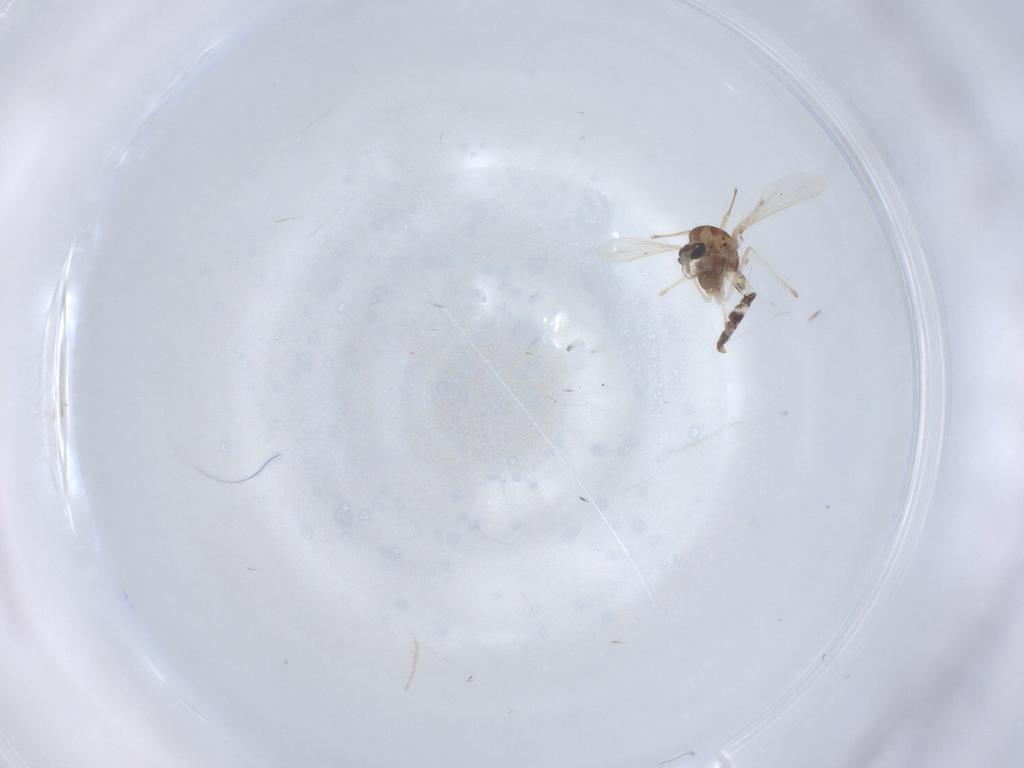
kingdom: Animalia
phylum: Arthropoda
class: Insecta
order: Diptera
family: Chironomidae
